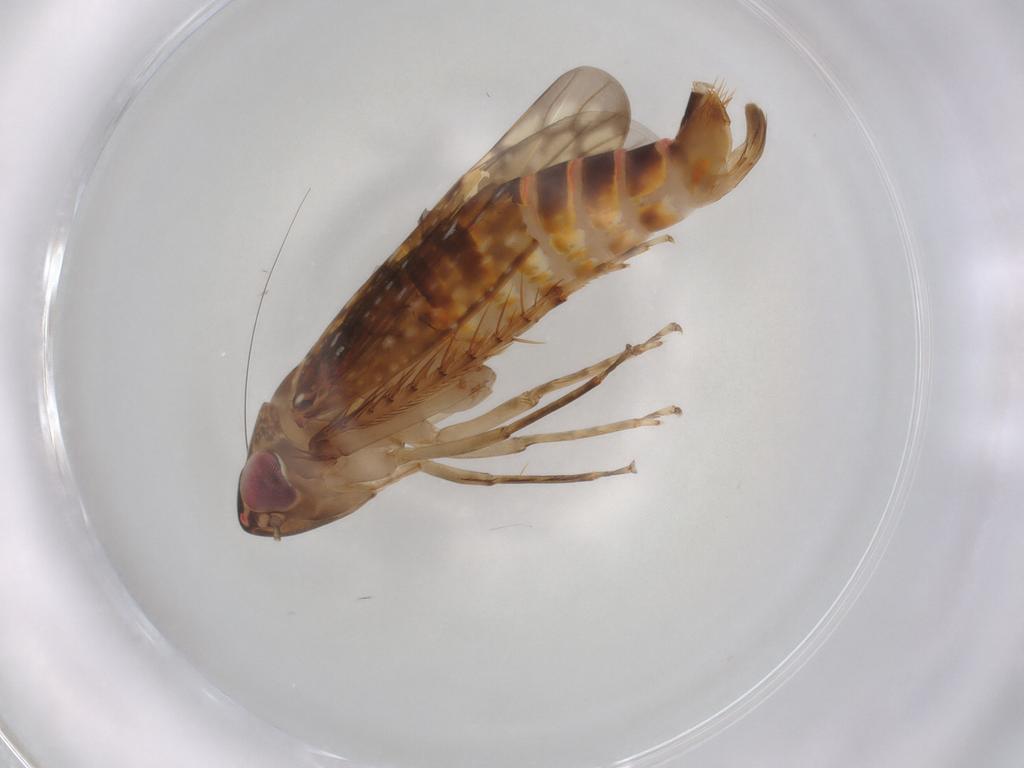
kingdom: Animalia
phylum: Arthropoda
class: Insecta
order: Hemiptera
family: Cicadellidae
